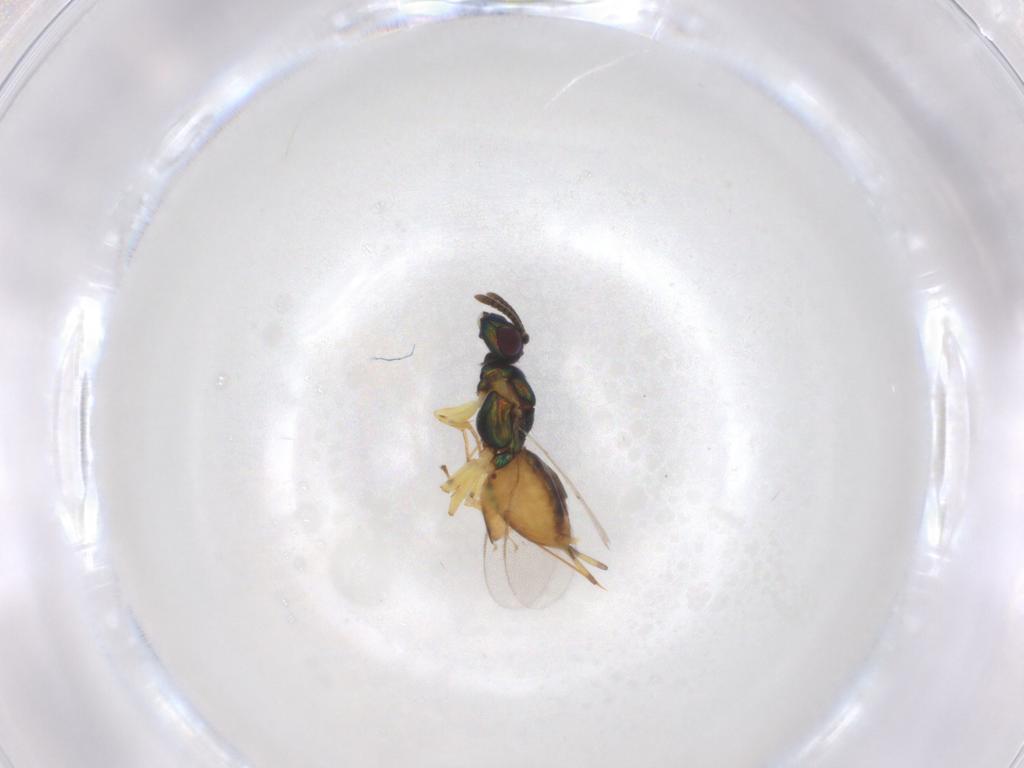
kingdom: Animalia
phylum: Arthropoda
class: Insecta
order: Hymenoptera
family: Eupelmidae
